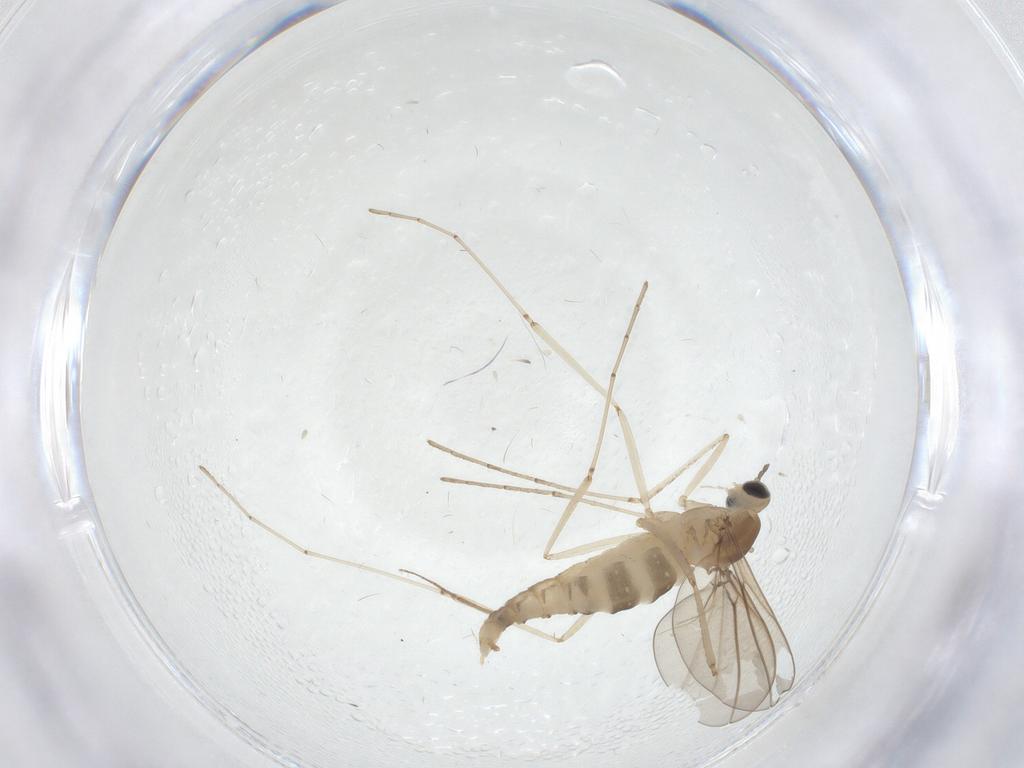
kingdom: Animalia
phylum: Arthropoda
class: Insecta
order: Diptera
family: Cecidomyiidae
